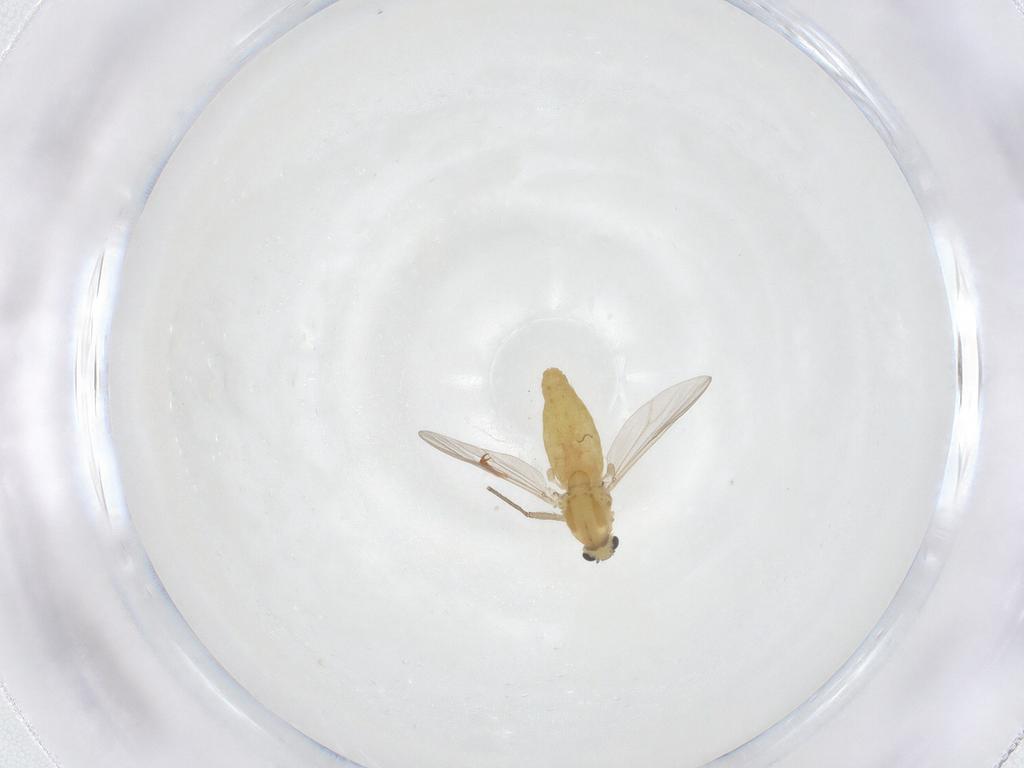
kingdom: Animalia
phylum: Arthropoda
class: Insecta
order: Diptera
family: Chironomidae
